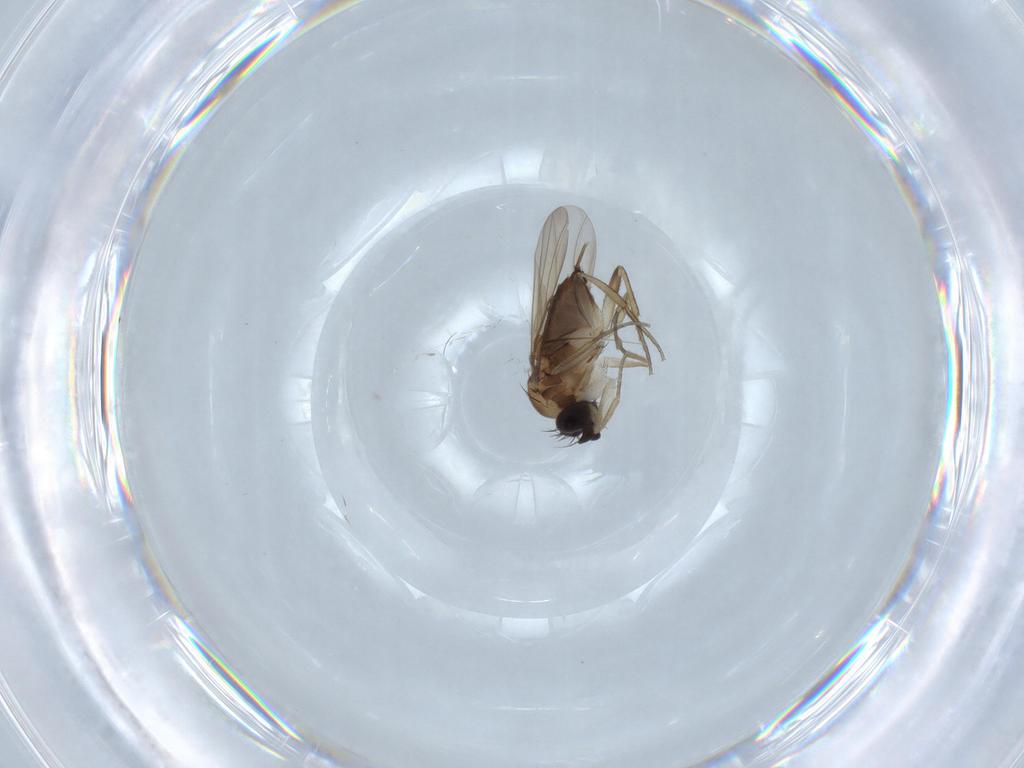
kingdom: Animalia
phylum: Arthropoda
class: Insecta
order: Diptera
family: Phoridae
